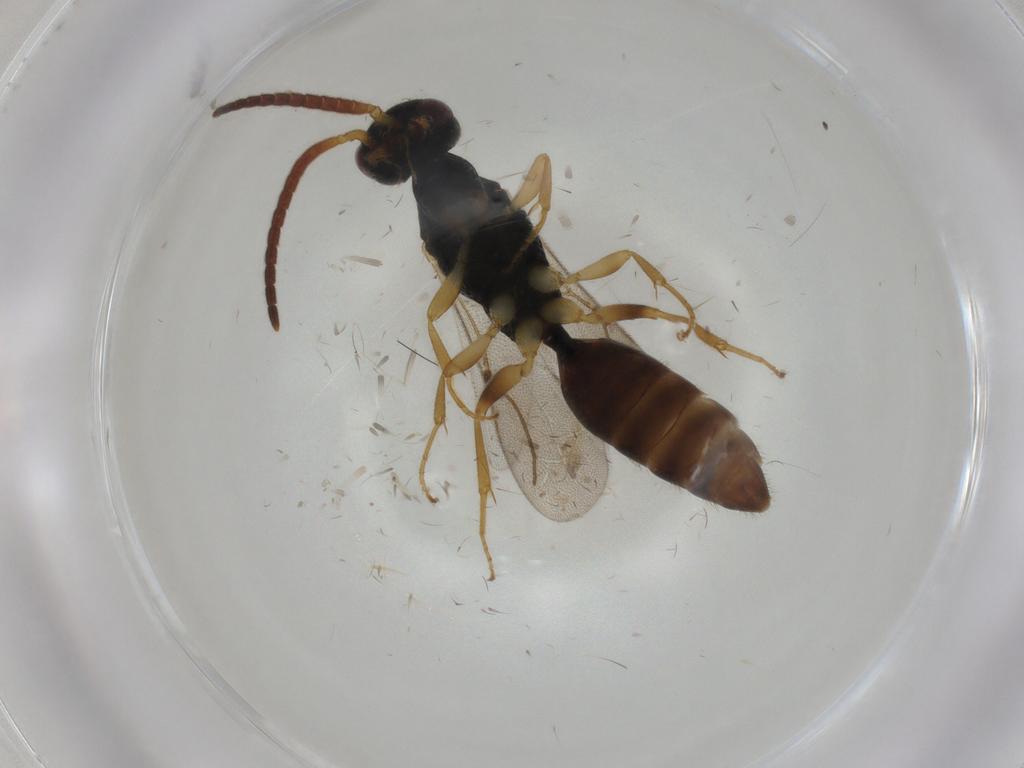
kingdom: Animalia
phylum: Arthropoda
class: Insecta
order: Hymenoptera
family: Bethylidae
